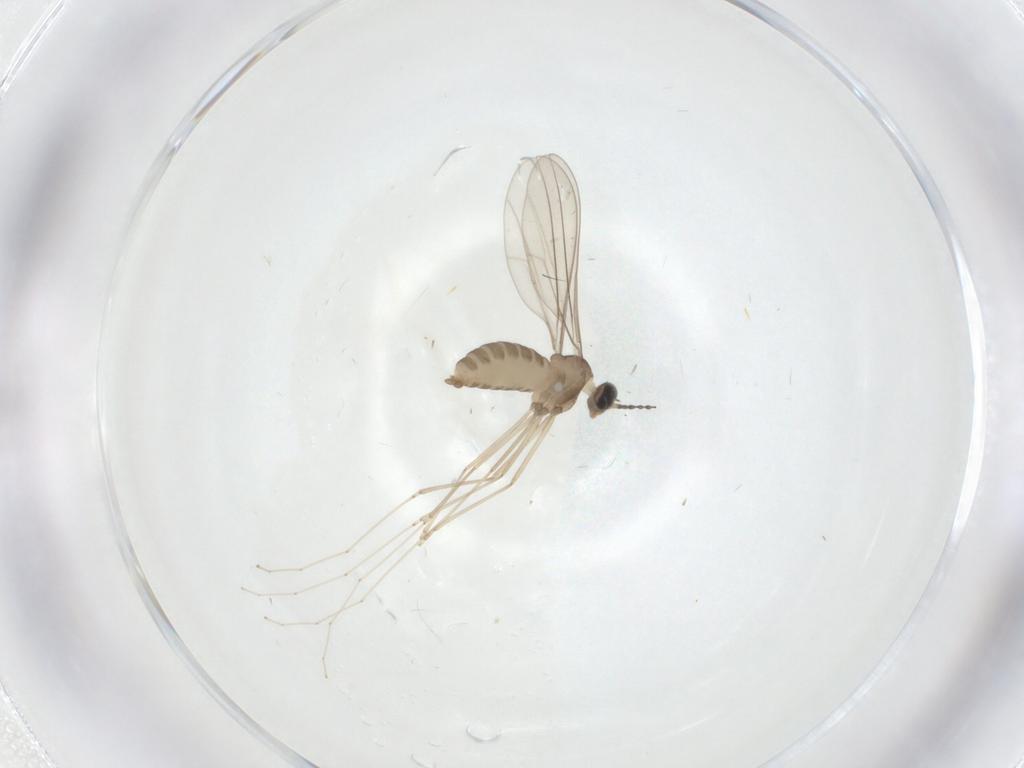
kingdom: Animalia
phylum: Arthropoda
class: Insecta
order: Diptera
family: Cecidomyiidae
